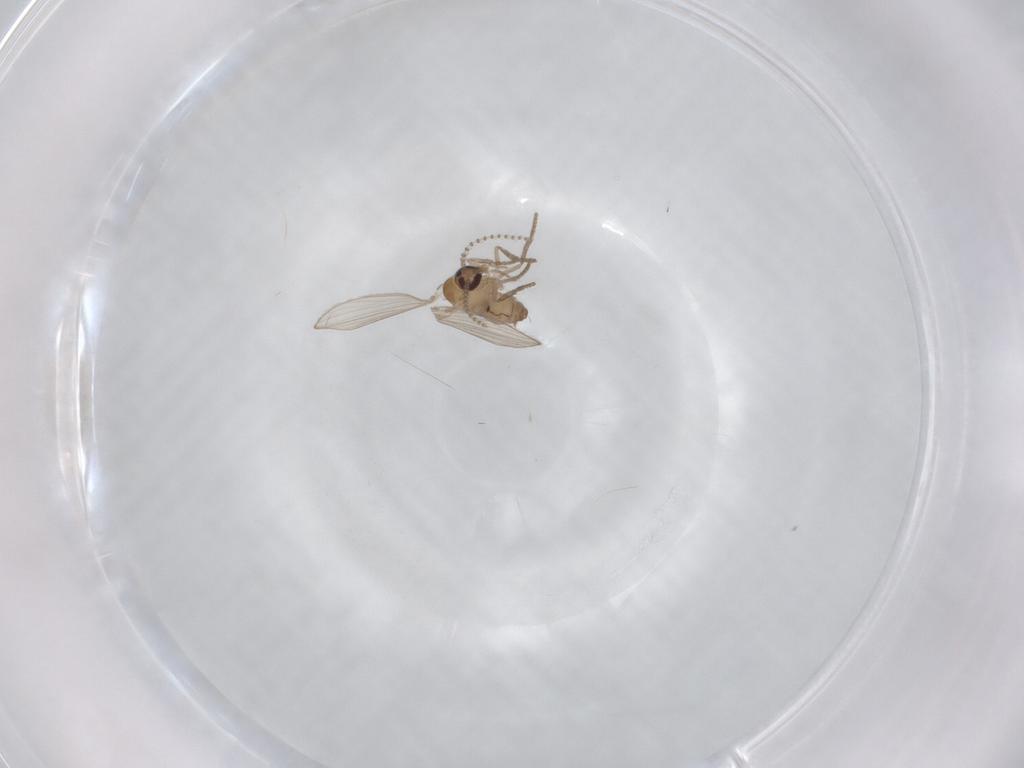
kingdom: Animalia
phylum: Arthropoda
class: Insecta
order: Diptera
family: Psychodidae
